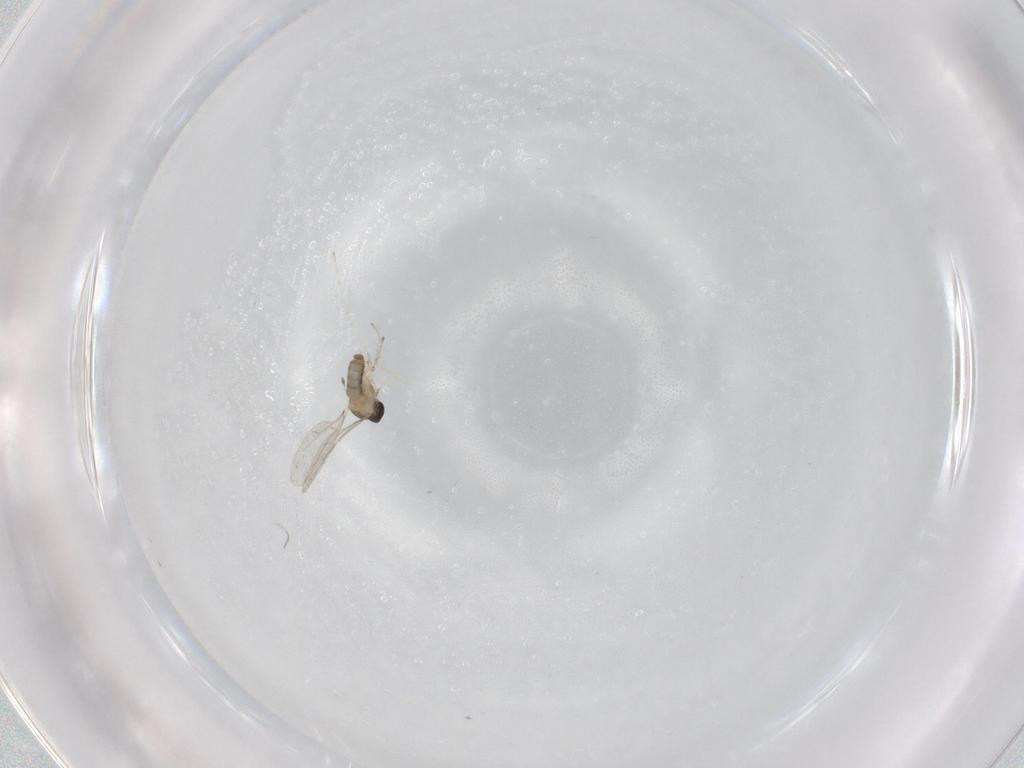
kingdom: Animalia
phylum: Arthropoda
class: Insecta
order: Diptera
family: Cecidomyiidae
